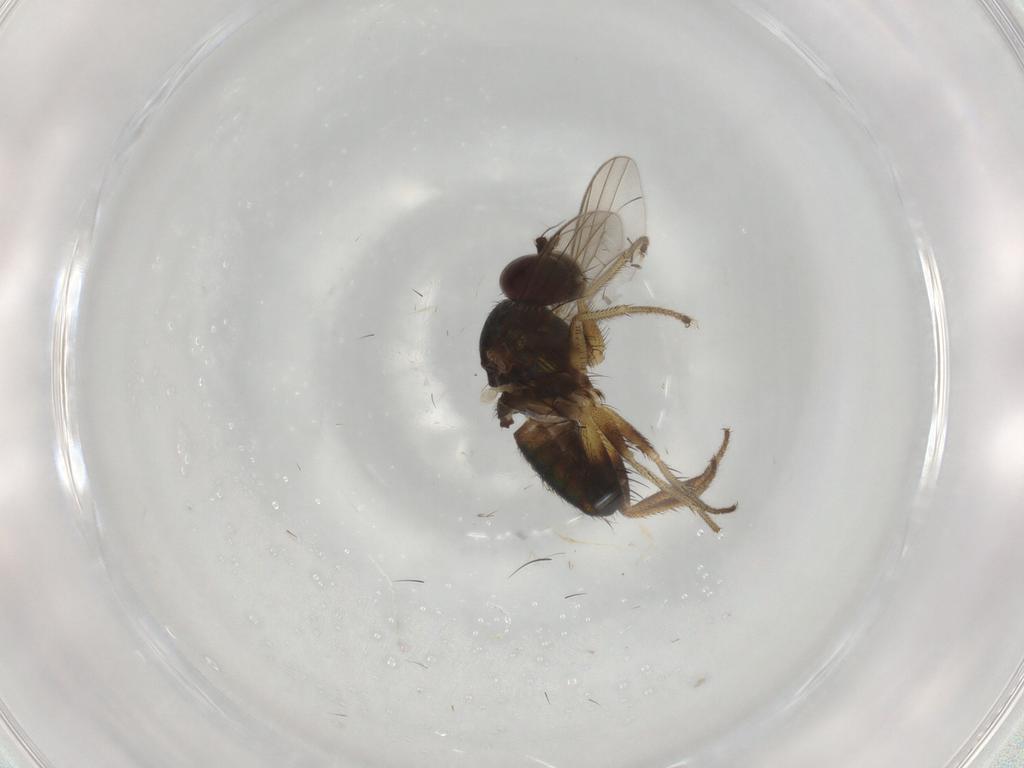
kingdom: Animalia
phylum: Arthropoda
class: Insecta
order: Diptera
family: Dolichopodidae
